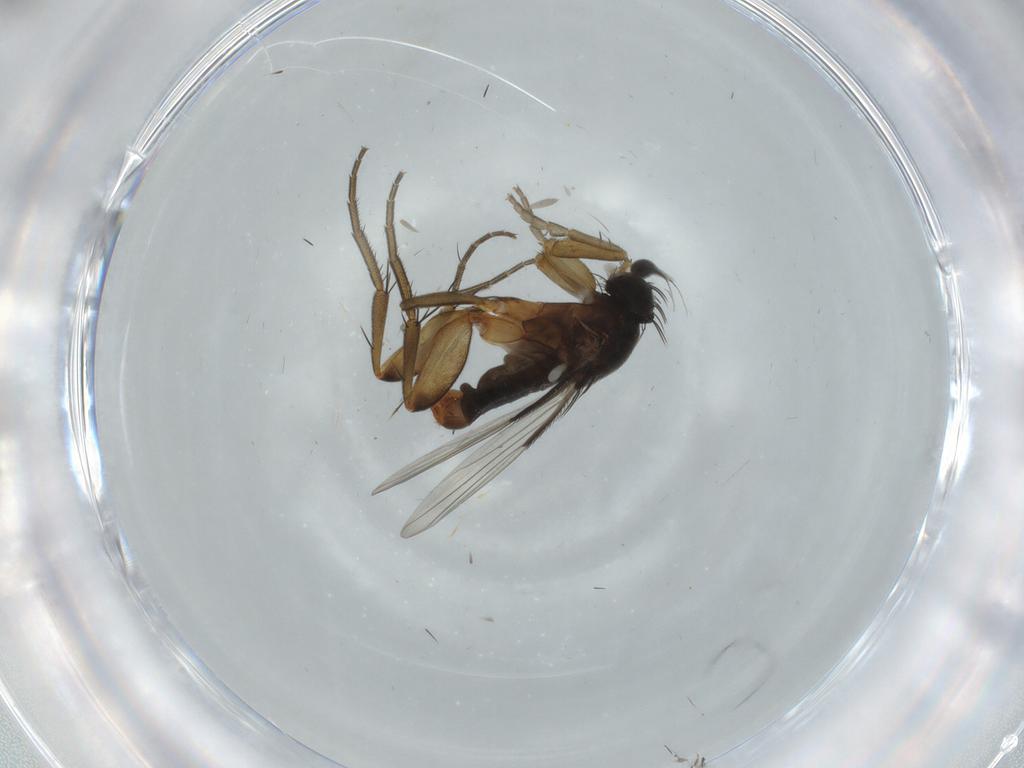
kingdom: Animalia
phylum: Arthropoda
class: Insecta
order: Diptera
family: Phoridae
